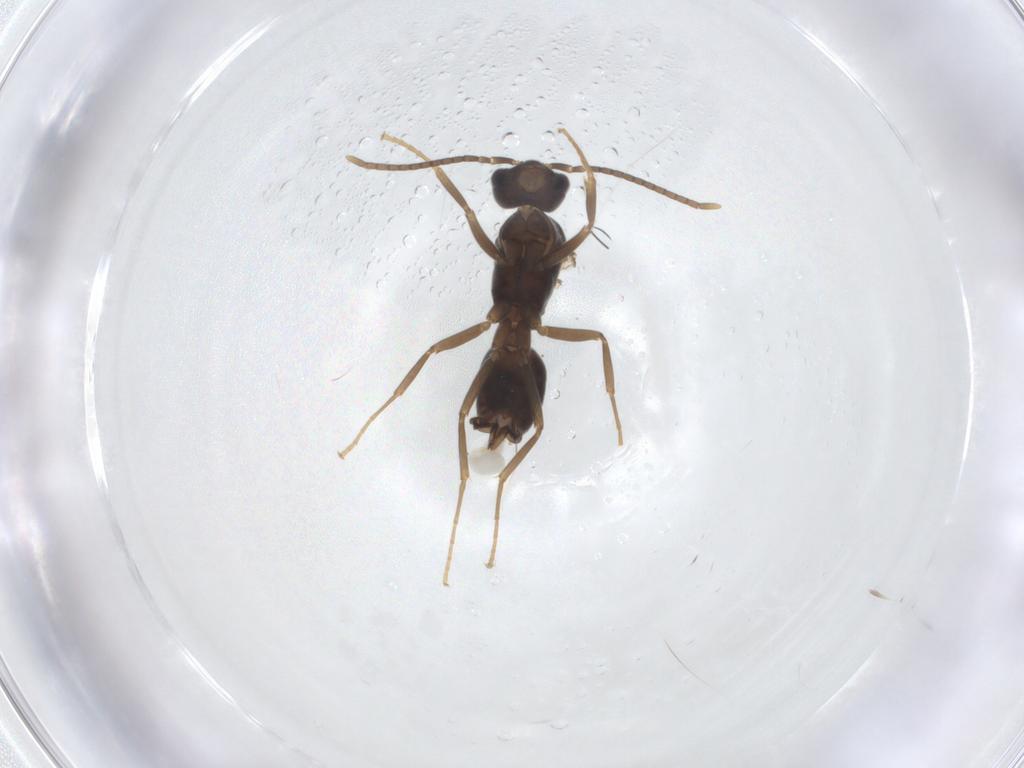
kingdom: Animalia
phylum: Arthropoda
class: Insecta
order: Hymenoptera
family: Formicidae
